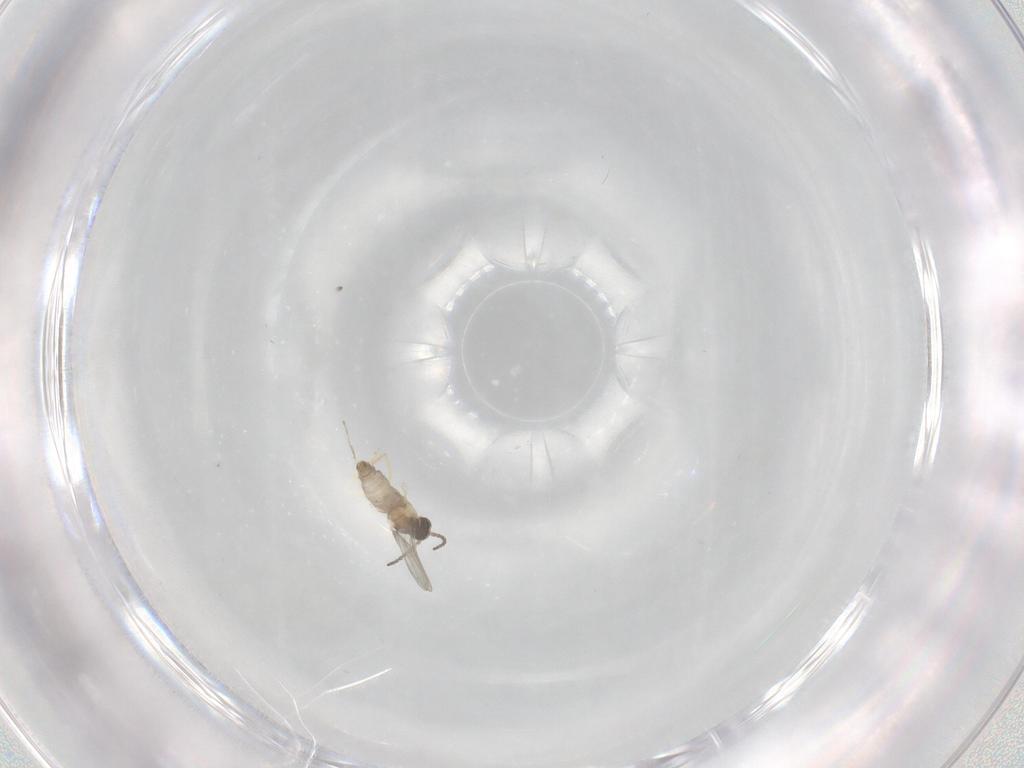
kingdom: Animalia
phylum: Arthropoda
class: Insecta
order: Diptera
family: Cecidomyiidae
